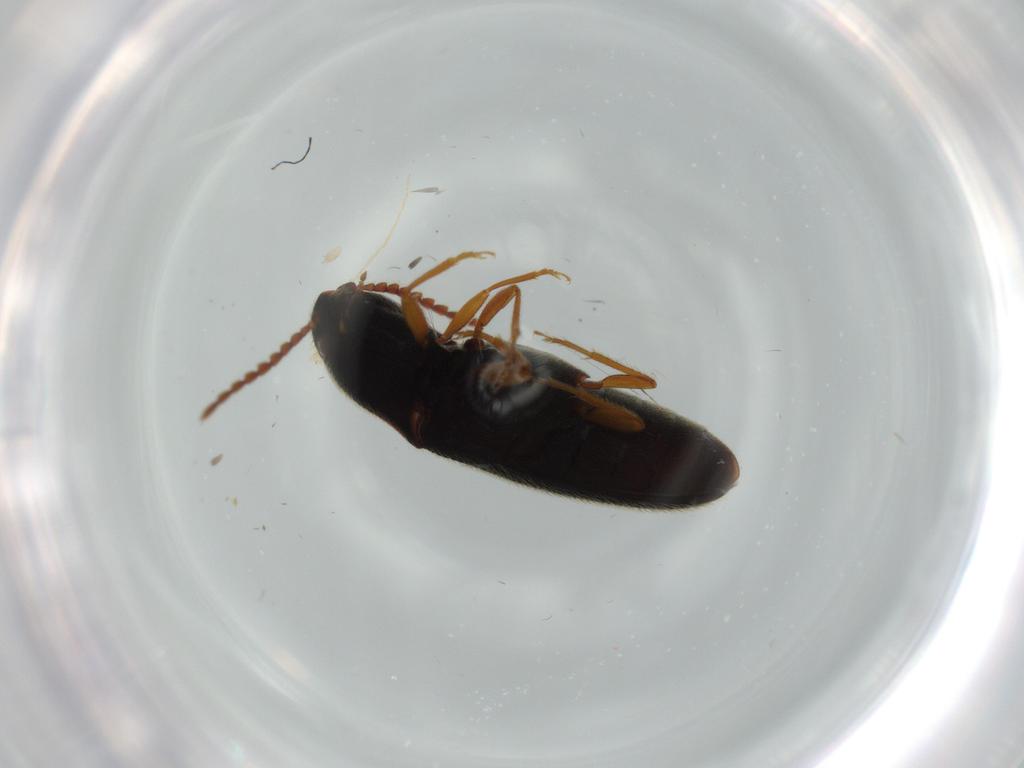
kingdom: Animalia
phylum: Arthropoda
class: Insecta
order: Coleoptera
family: Elateridae
